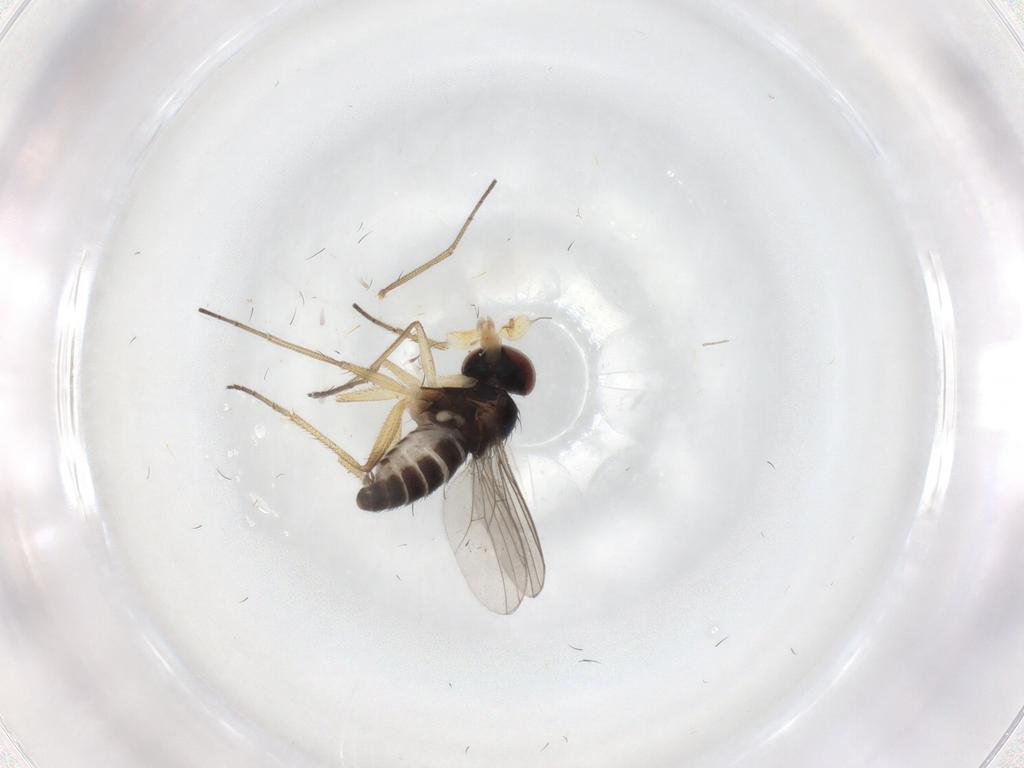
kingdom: Animalia
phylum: Arthropoda
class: Insecta
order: Diptera
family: Dolichopodidae
